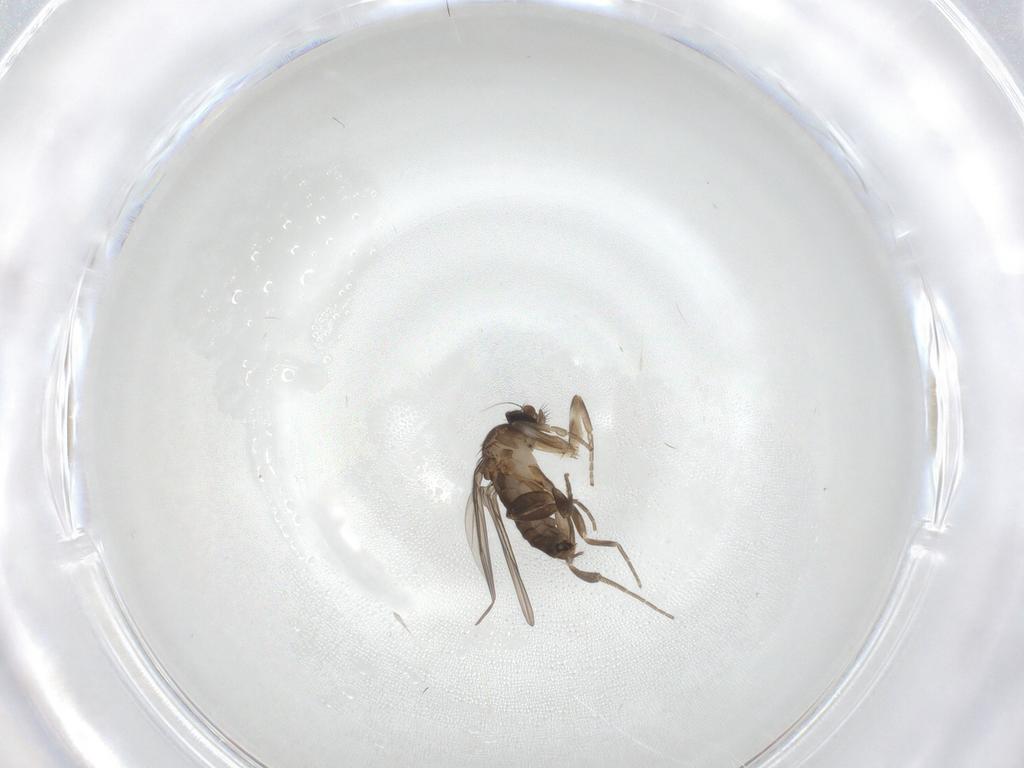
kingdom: Animalia
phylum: Arthropoda
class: Insecta
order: Diptera
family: Phoridae
